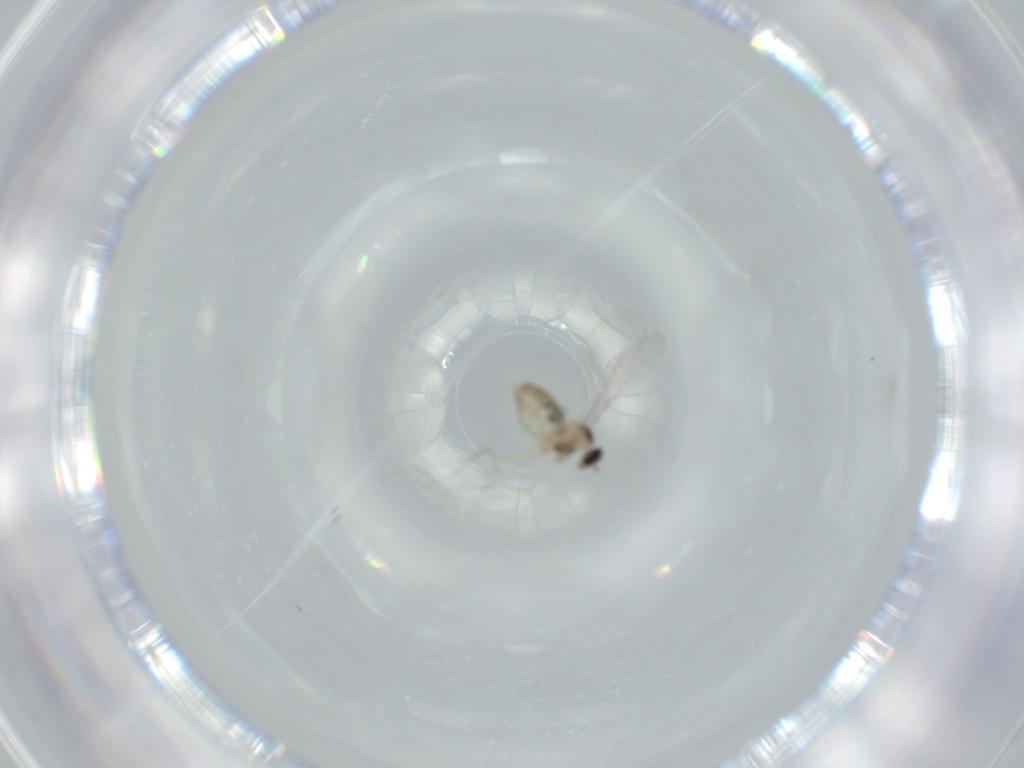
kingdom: Animalia
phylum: Arthropoda
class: Insecta
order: Diptera
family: Cecidomyiidae
